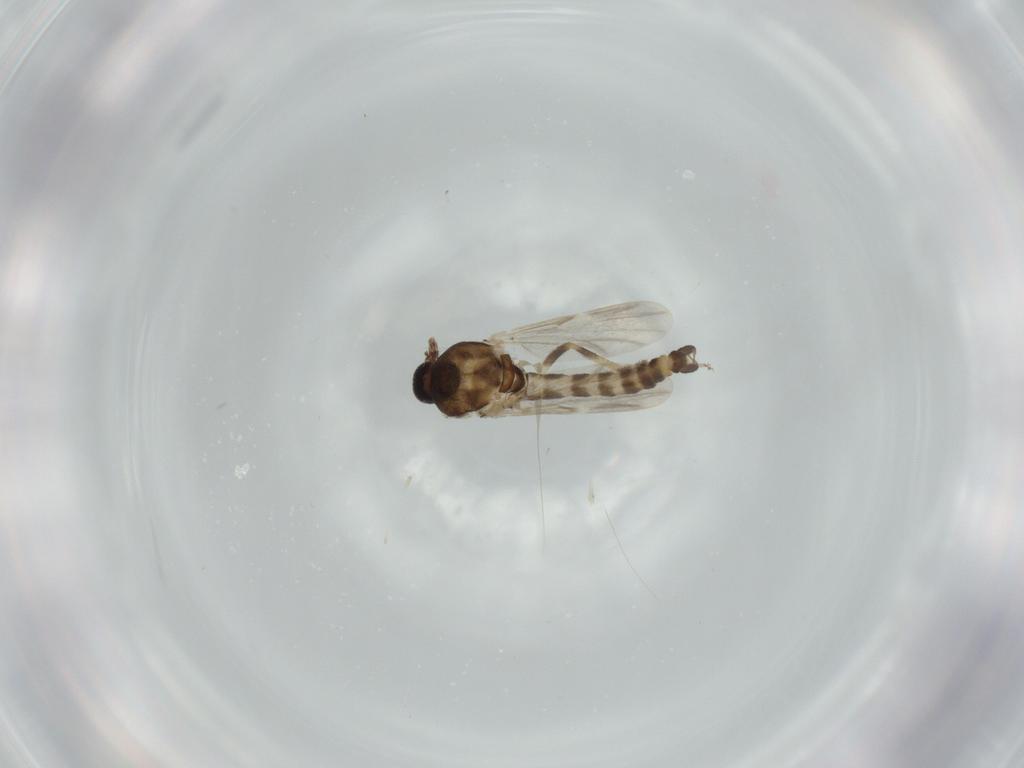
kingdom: Animalia
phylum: Arthropoda
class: Insecta
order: Diptera
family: Ceratopogonidae
